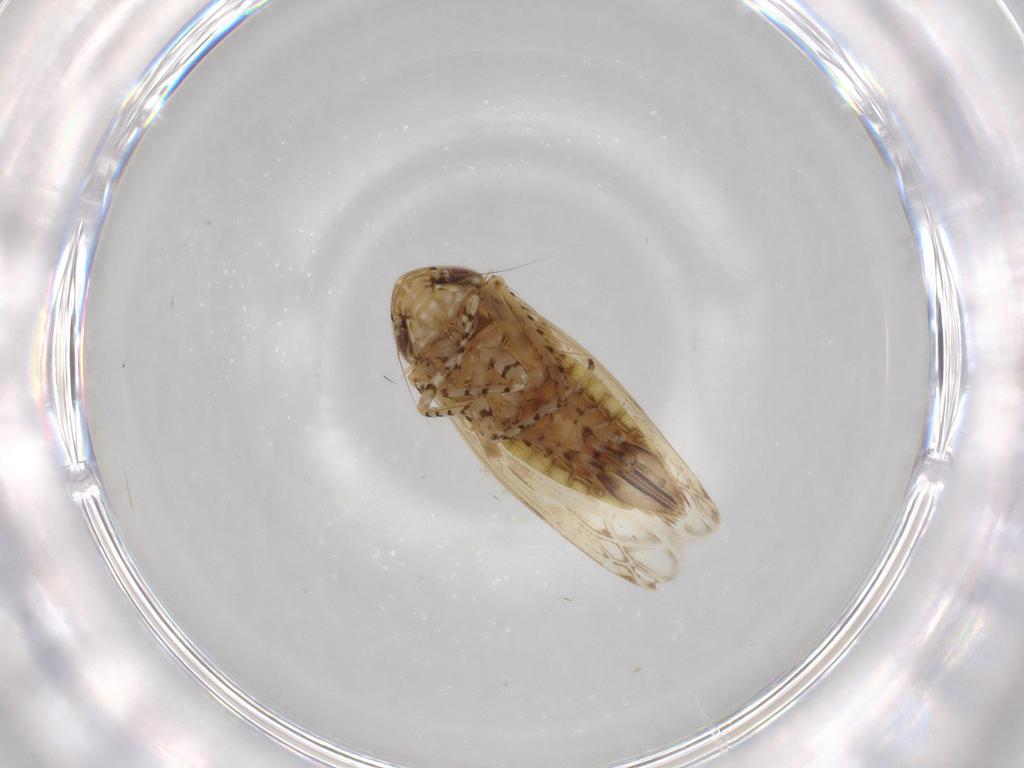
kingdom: Animalia
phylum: Arthropoda
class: Insecta
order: Hemiptera
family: Cicadellidae
